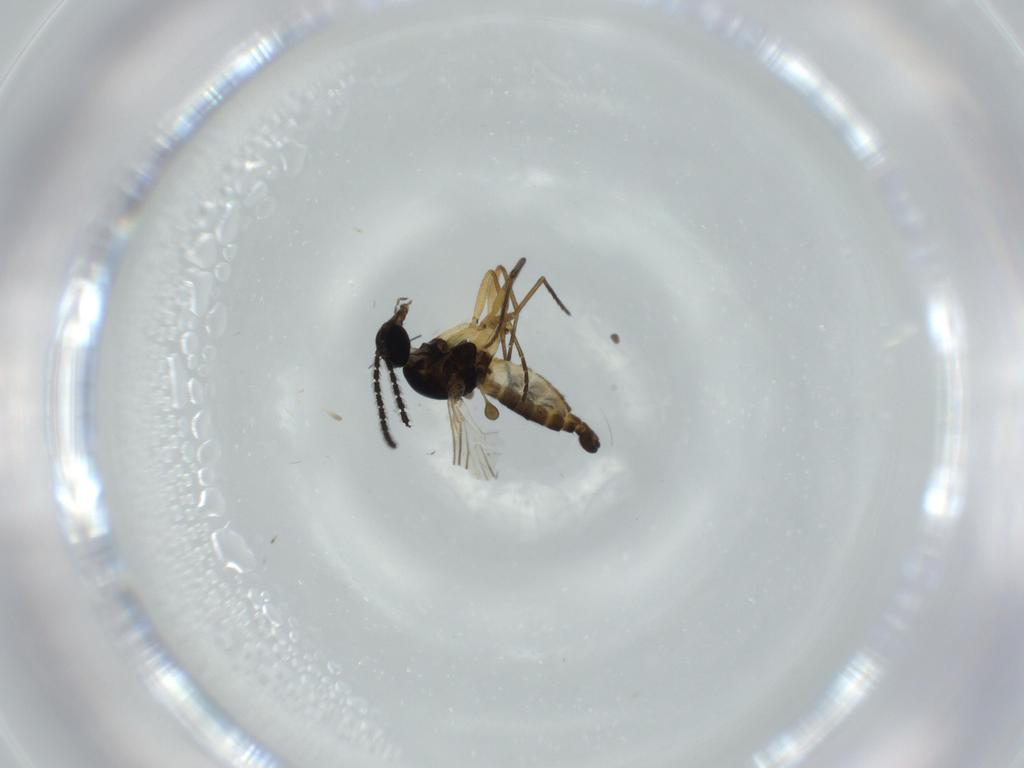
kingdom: Animalia
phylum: Arthropoda
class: Insecta
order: Diptera
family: Sciaridae
